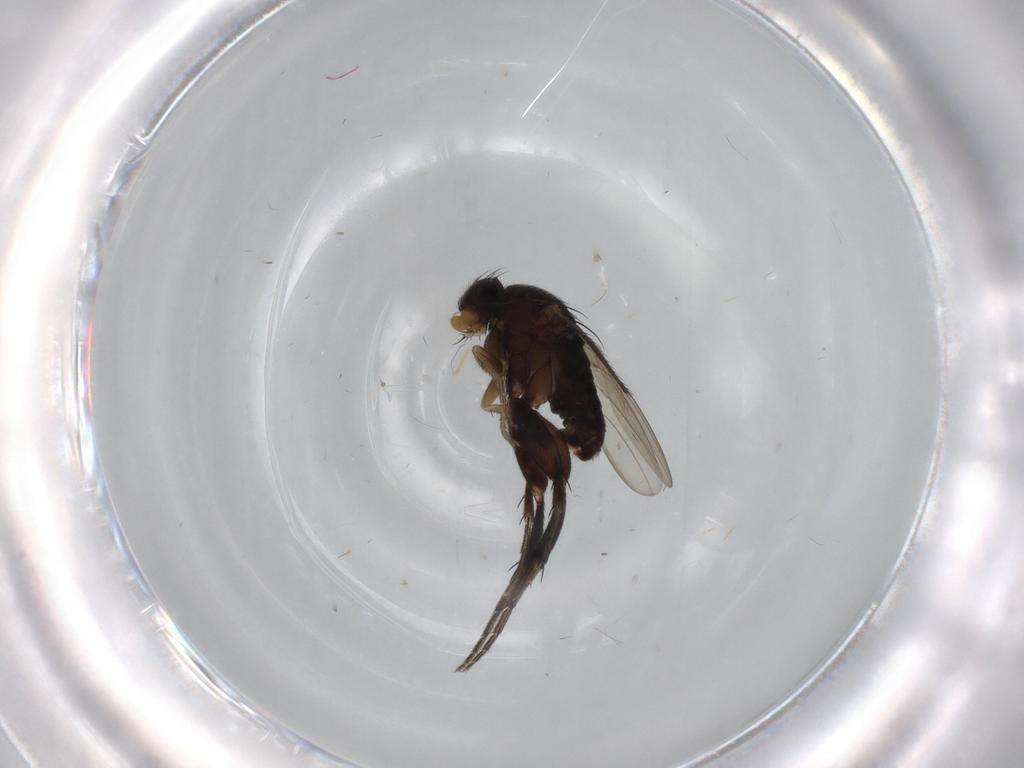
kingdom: Animalia
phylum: Arthropoda
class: Insecta
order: Diptera
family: Phoridae
